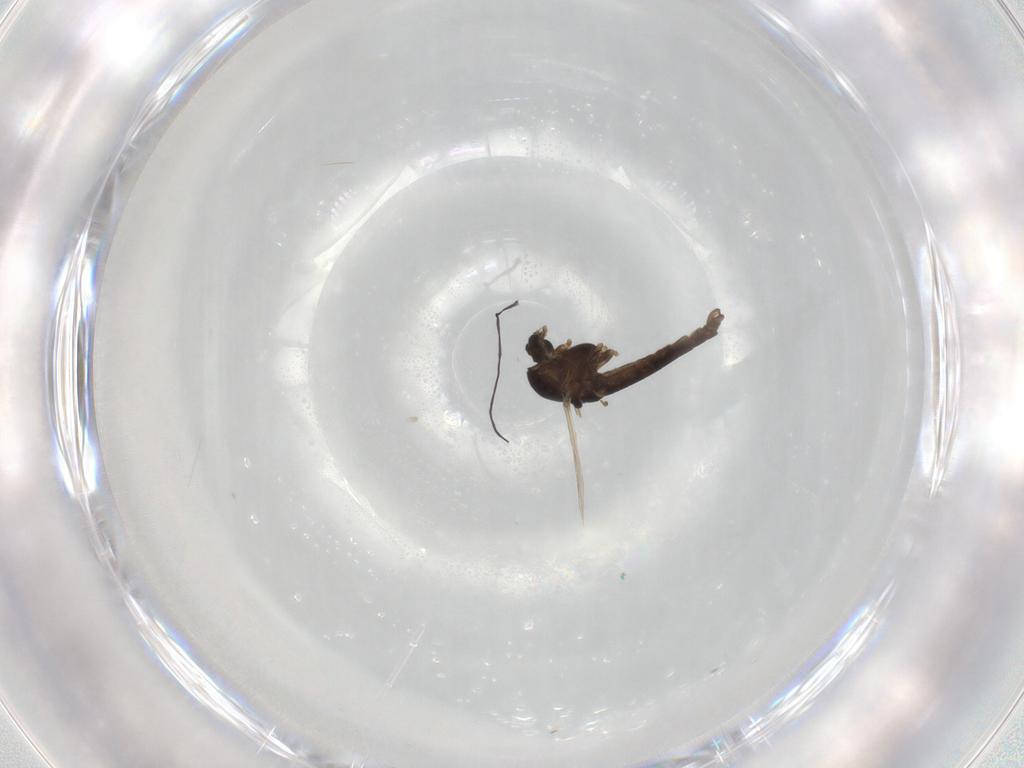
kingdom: Animalia
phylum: Arthropoda
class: Insecta
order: Diptera
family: Chironomidae
